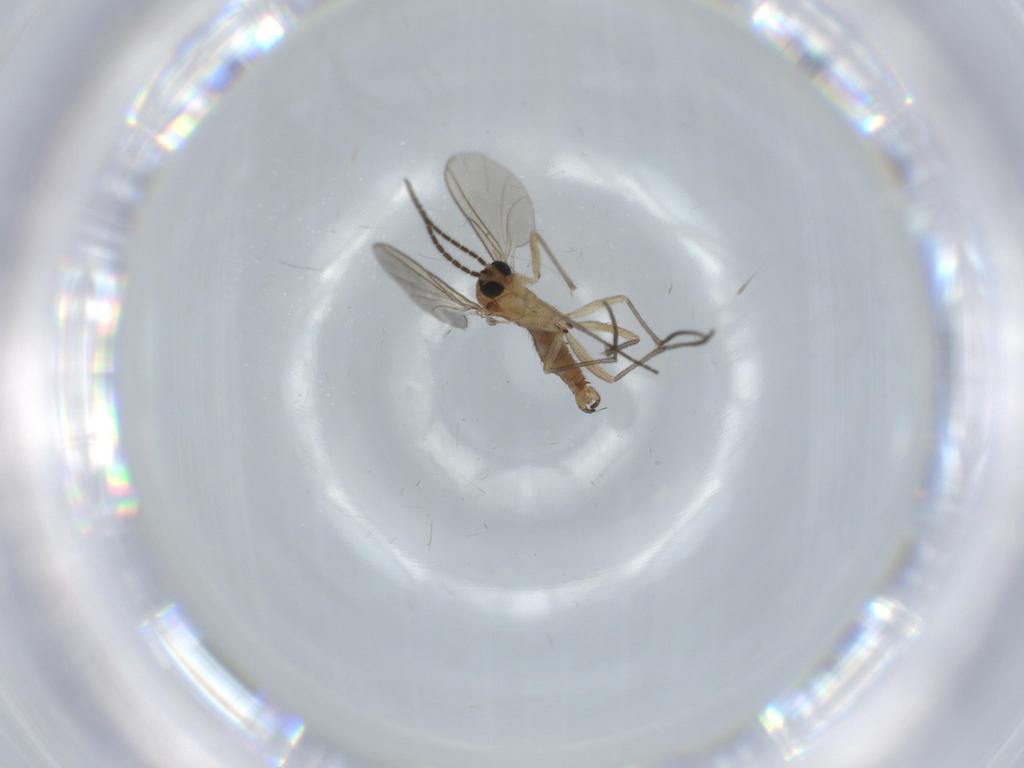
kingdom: Animalia
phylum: Arthropoda
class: Insecta
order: Diptera
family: Sciaridae
